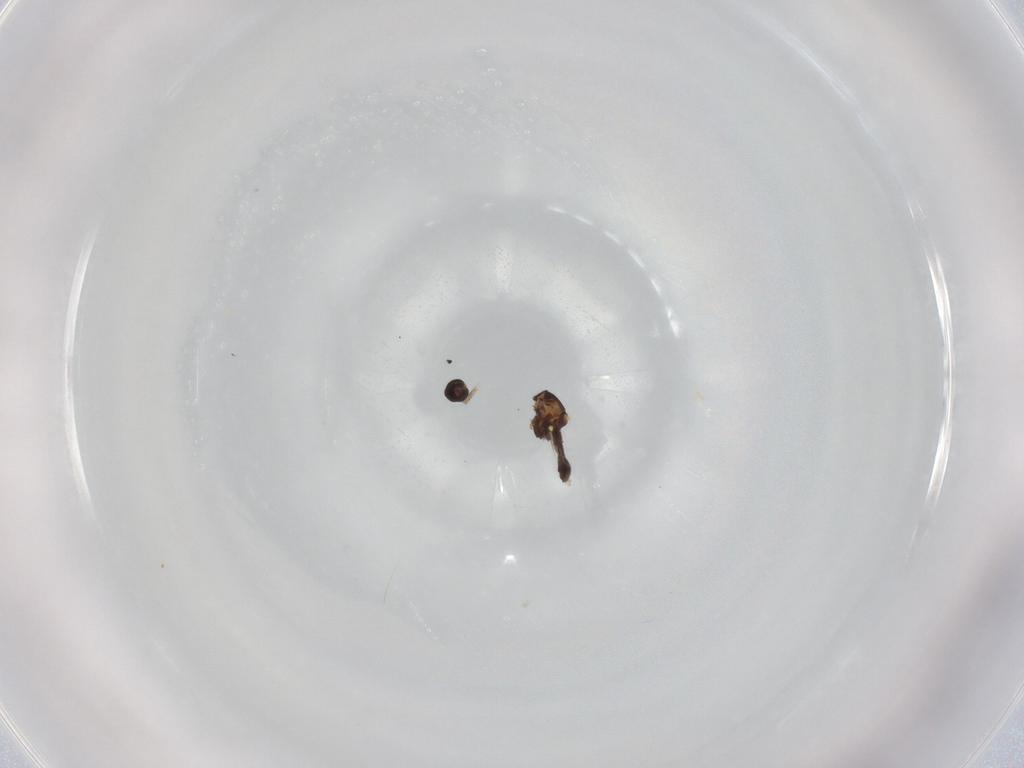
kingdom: Animalia
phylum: Arthropoda
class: Insecta
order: Diptera
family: Ceratopogonidae
